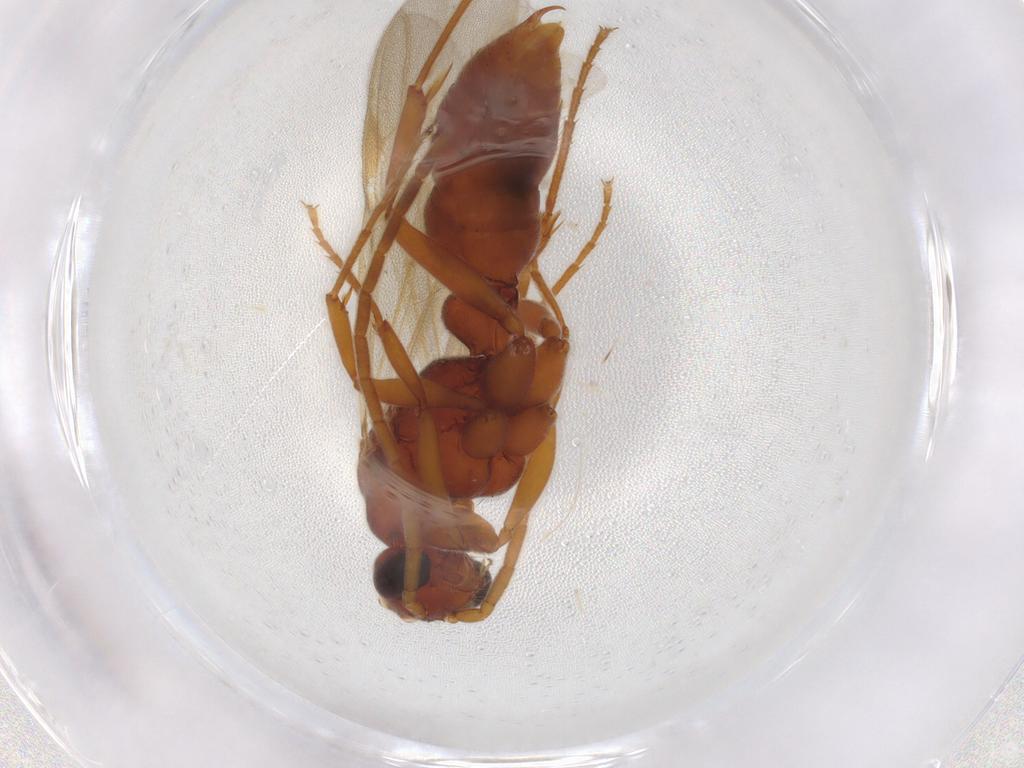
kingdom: Animalia
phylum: Arthropoda
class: Insecta
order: Hymenoptera
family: Formicidae
